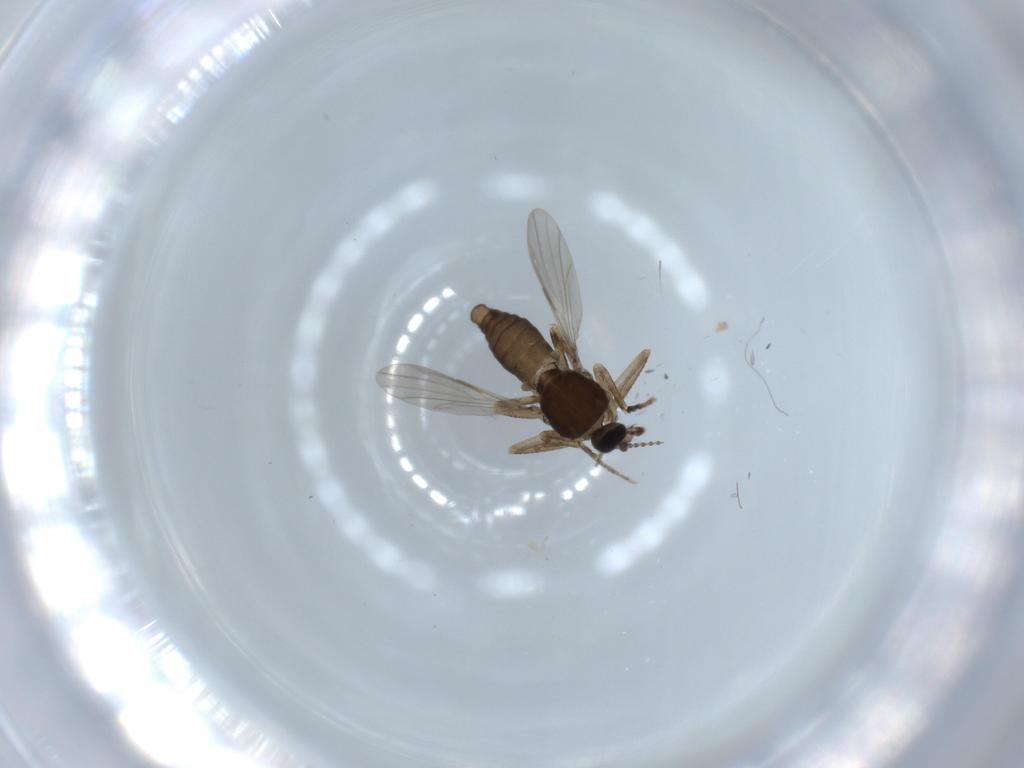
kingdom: Animalia
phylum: Arthropoda
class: Insecta
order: Diptera
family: Ceratopogonidae
